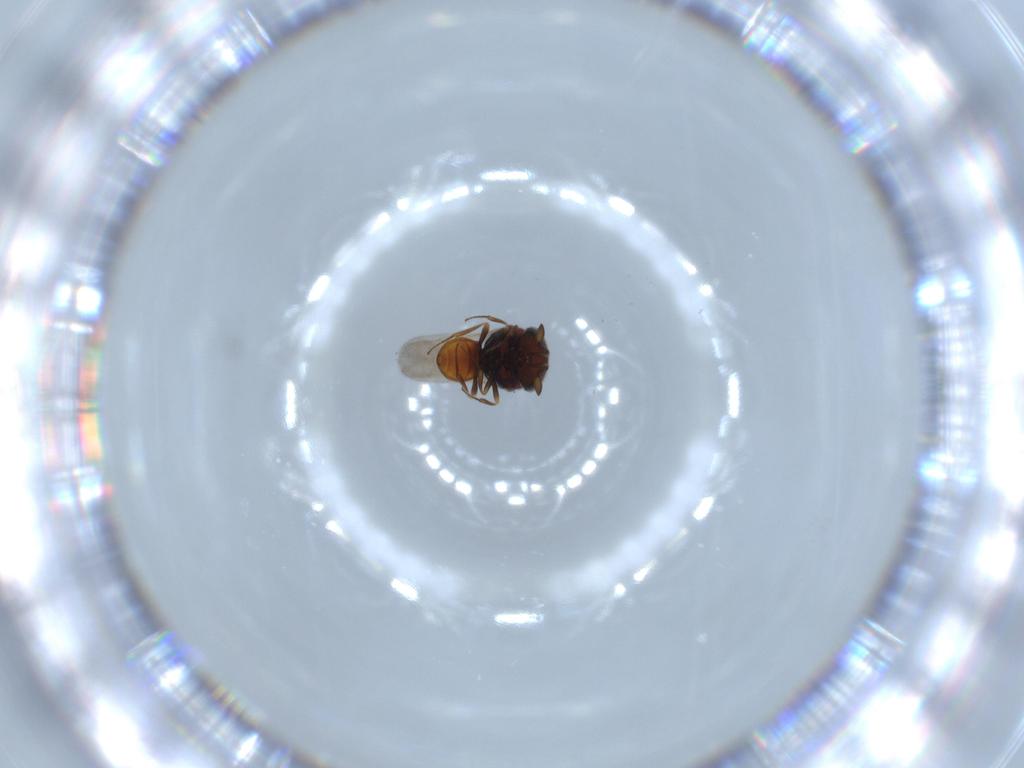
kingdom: Animalia
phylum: Arthropoda
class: Insecta
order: Hymenoptera
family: Scelionidae
